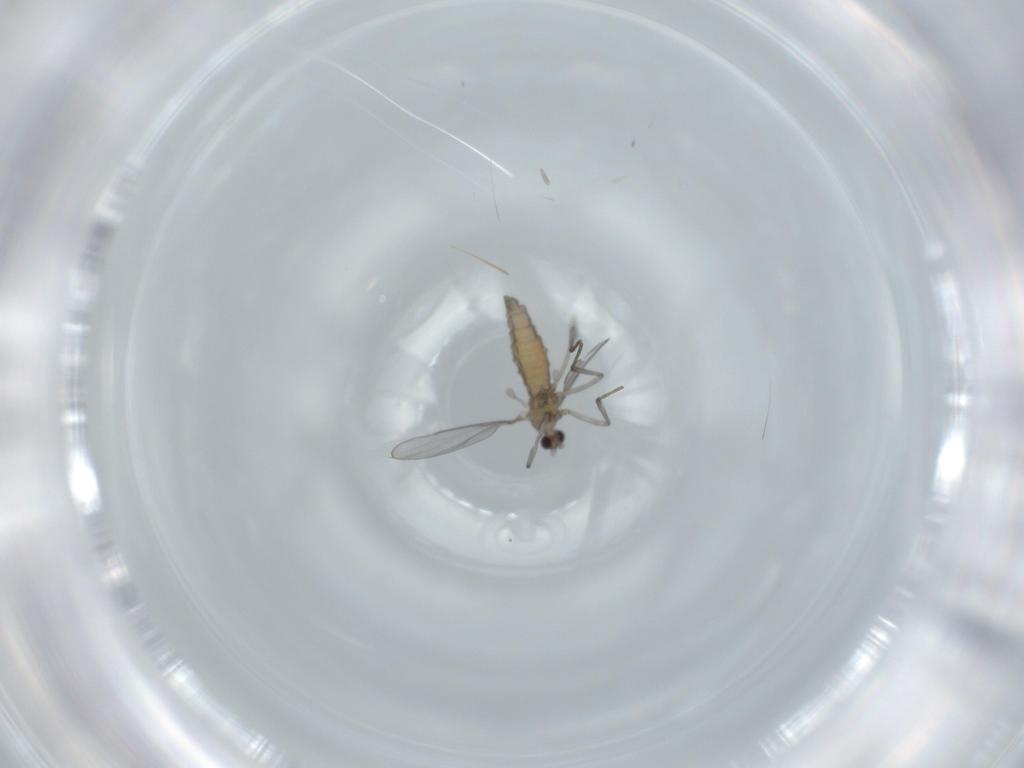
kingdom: Animalia
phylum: Arthropoda
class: Insecta
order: Diptera
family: Cecidomyiidae
